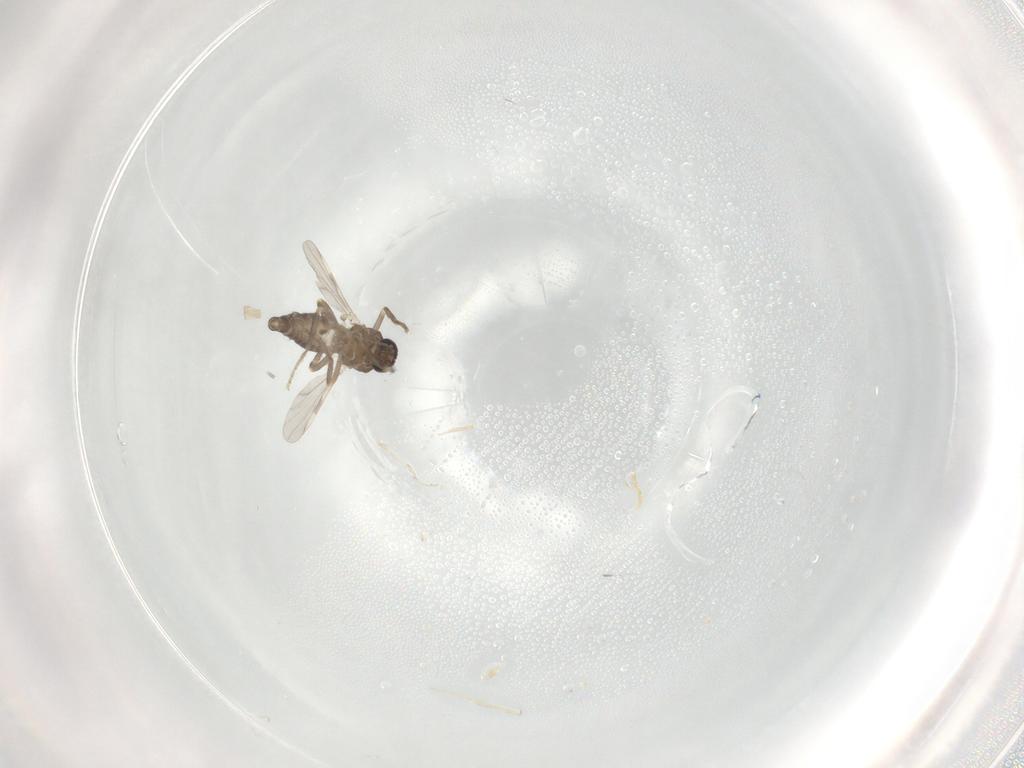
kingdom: Animalia
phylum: Arthropoda
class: Insecta
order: Diptera
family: Ceratopogonidae
